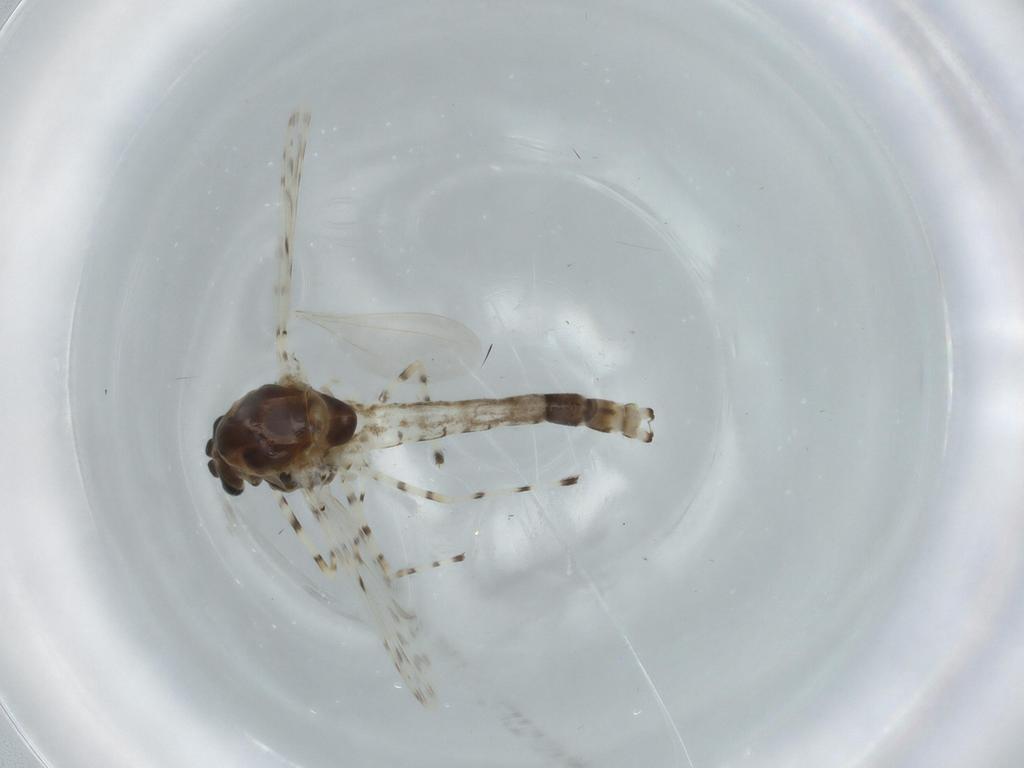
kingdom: Animalia
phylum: Arthropoda
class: Insecta
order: Diptera
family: Chironomidae
